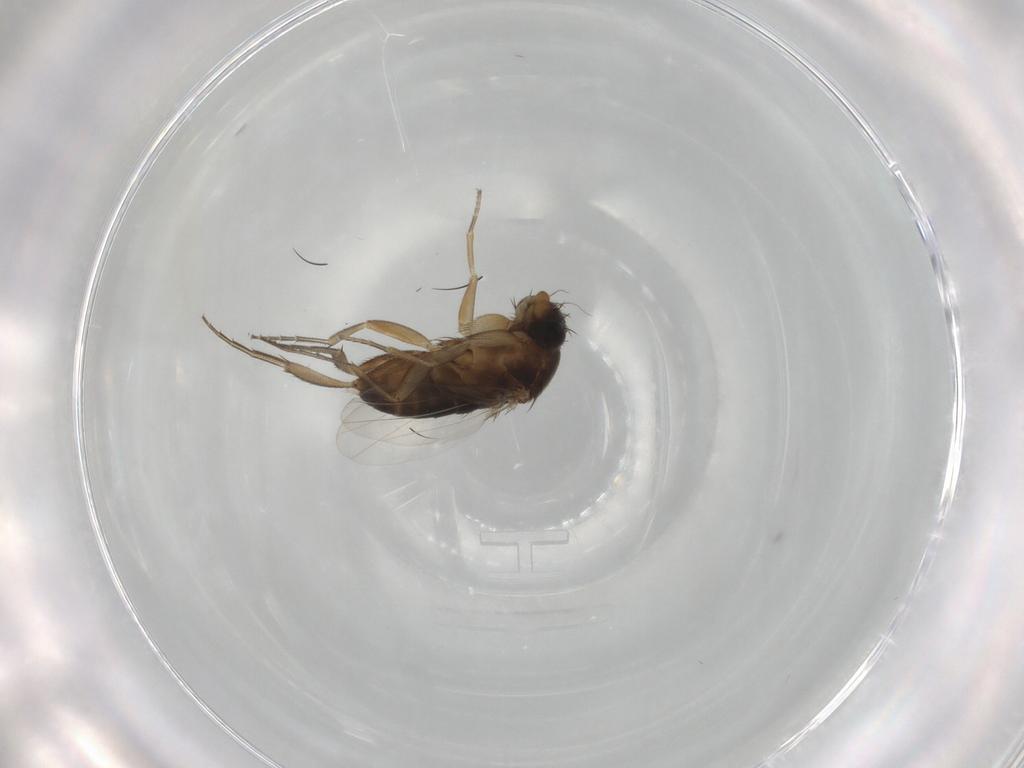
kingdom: Animalia
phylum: Arthropoda
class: Insecta
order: Diptera
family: Phoridae
